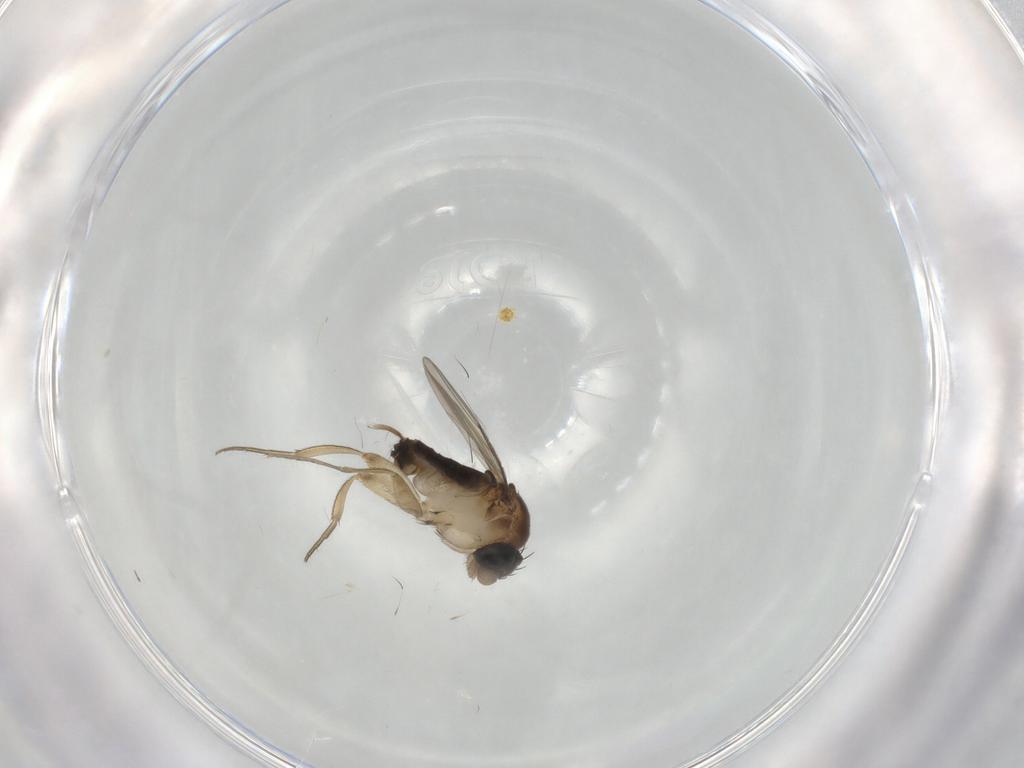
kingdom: Animalia
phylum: Arthropoda
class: Insecta
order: Diptera
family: Phoridae
